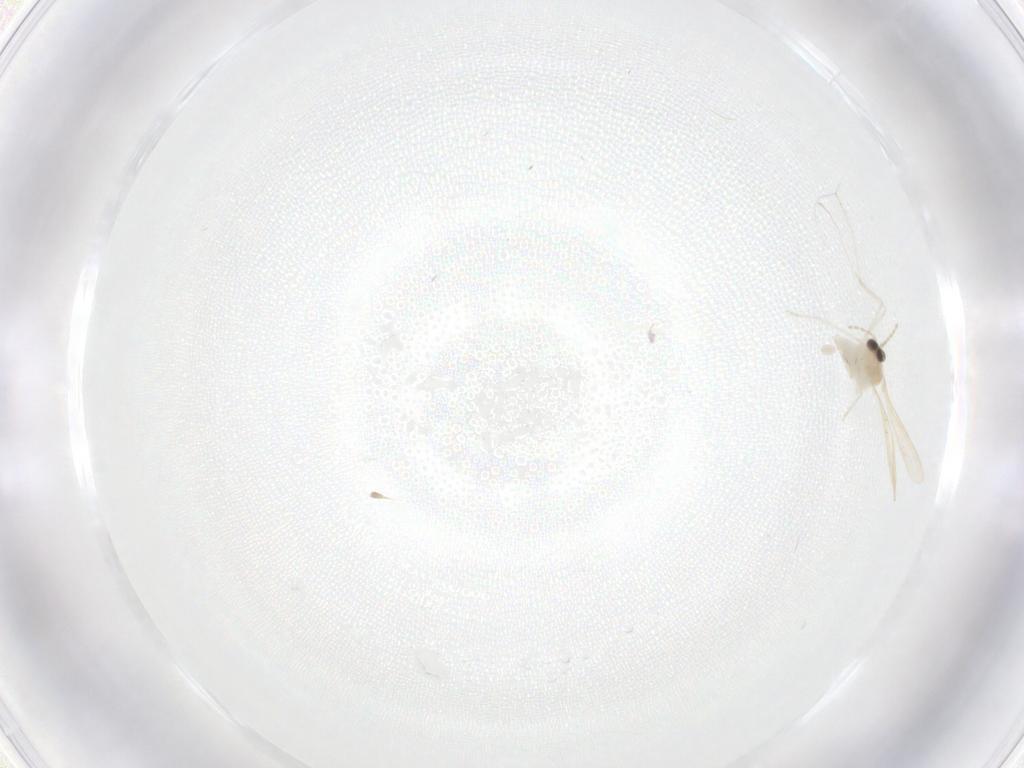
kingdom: Animalia
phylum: Arthropoda
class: Insecta
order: Diptera
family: Cecidomyiidae
